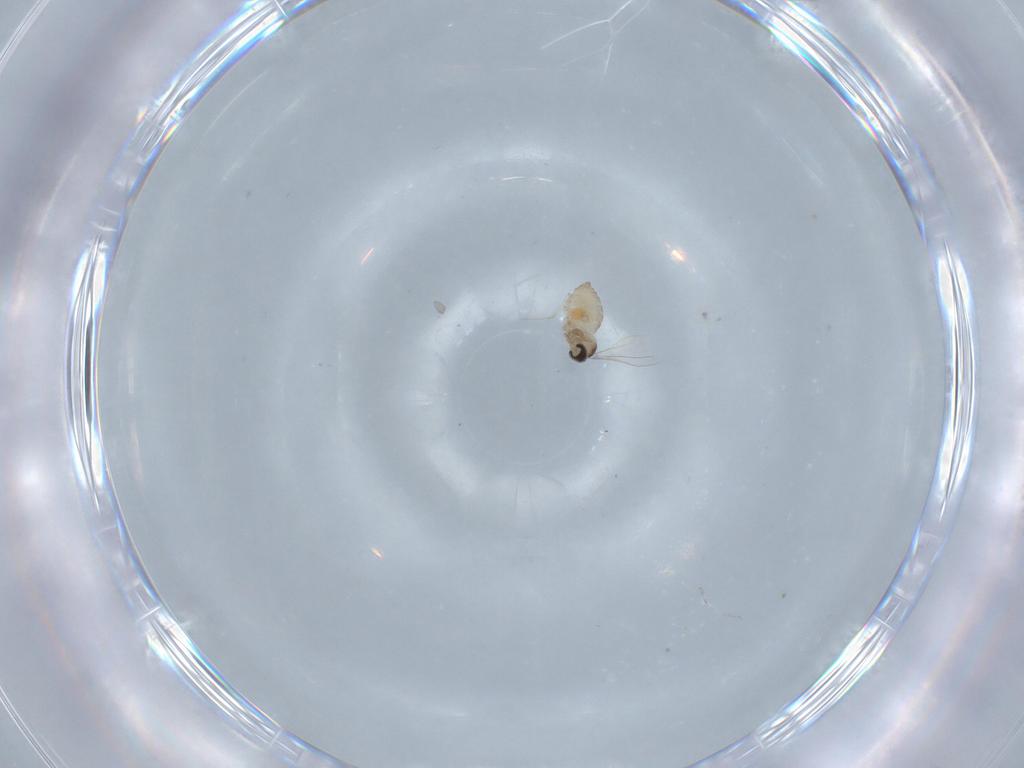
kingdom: Animalia
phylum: Arthropoda
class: Insecta
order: Diptera
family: Cecidomyiidae
